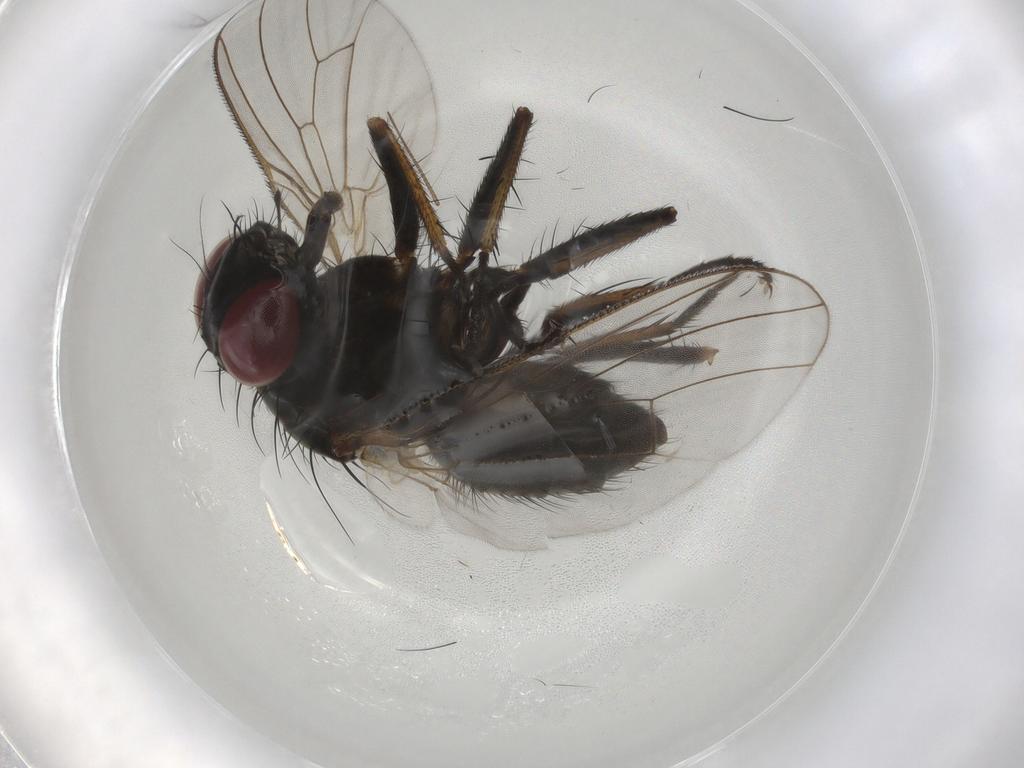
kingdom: Animalia
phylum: Arthropoda
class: Insecta
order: Diptera
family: Muscidae
